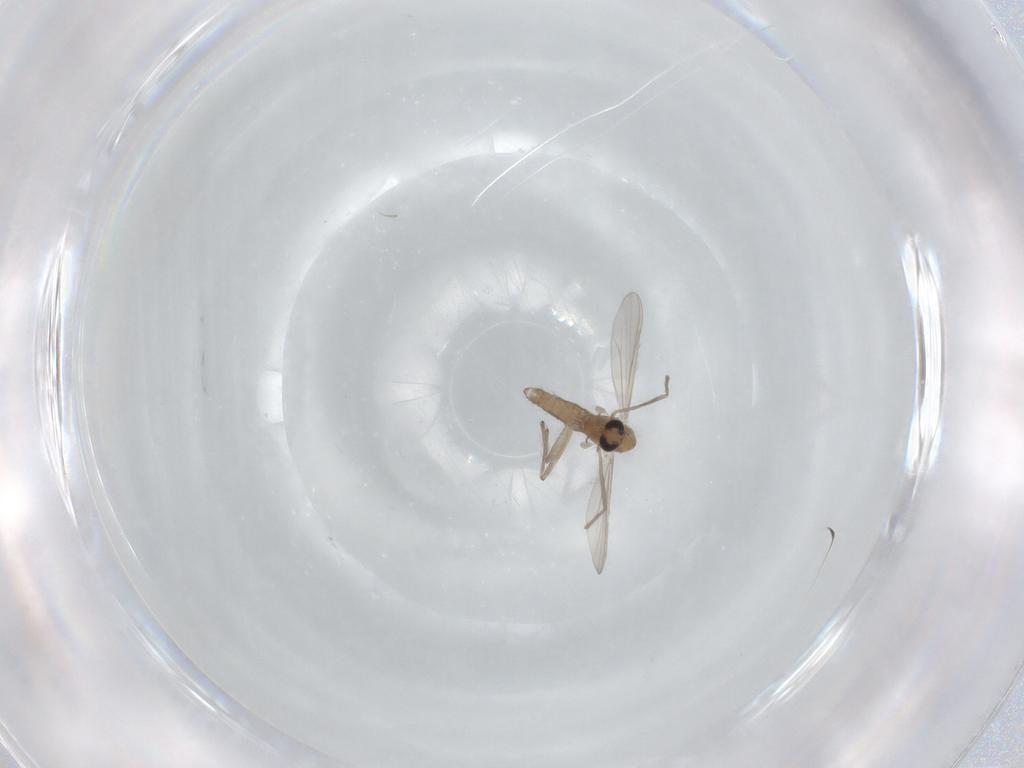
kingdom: Animalia
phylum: Arthropoda
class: Insecta
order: Diptera
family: Chironomidae
